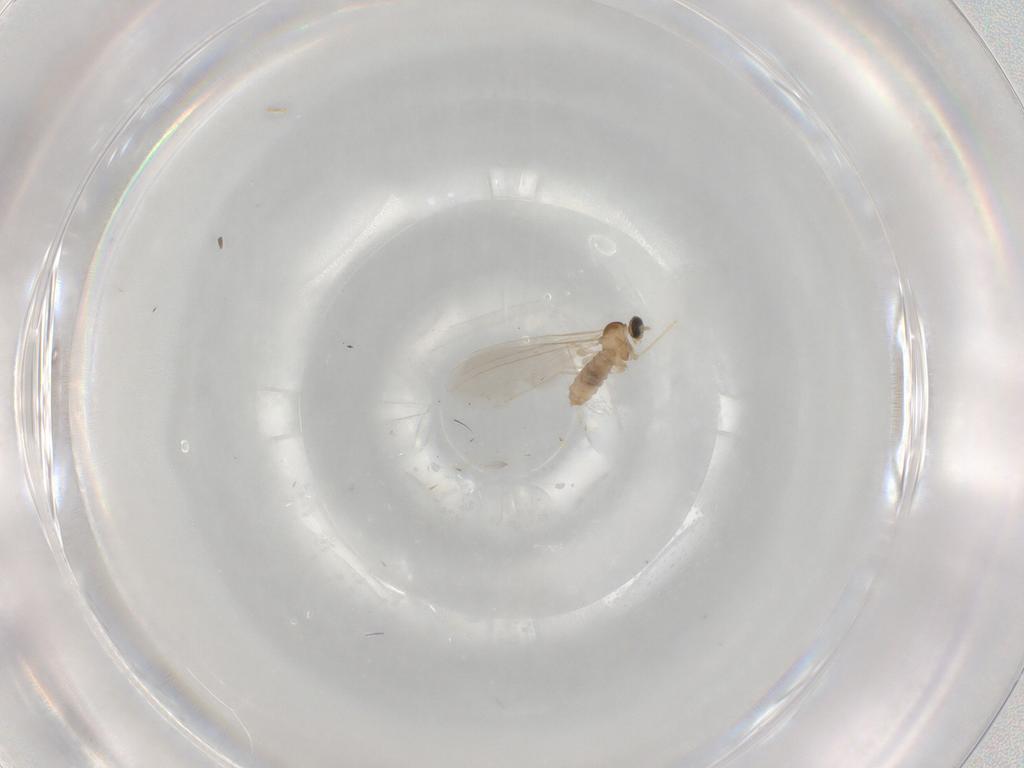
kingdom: Animalia
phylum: Arthropoda
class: Insecta
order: Diptera
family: Cecidomyiidae
